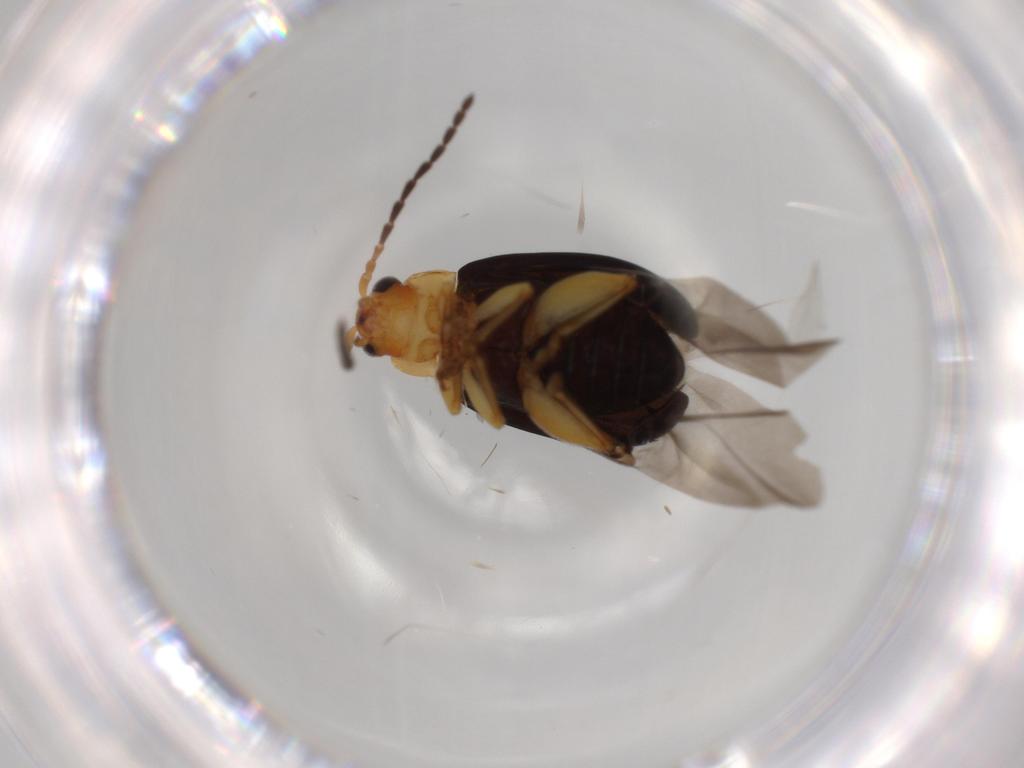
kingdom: Animalia
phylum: Arthropoda
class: Insecta
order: Coleoptera
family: Chrysomelidae
